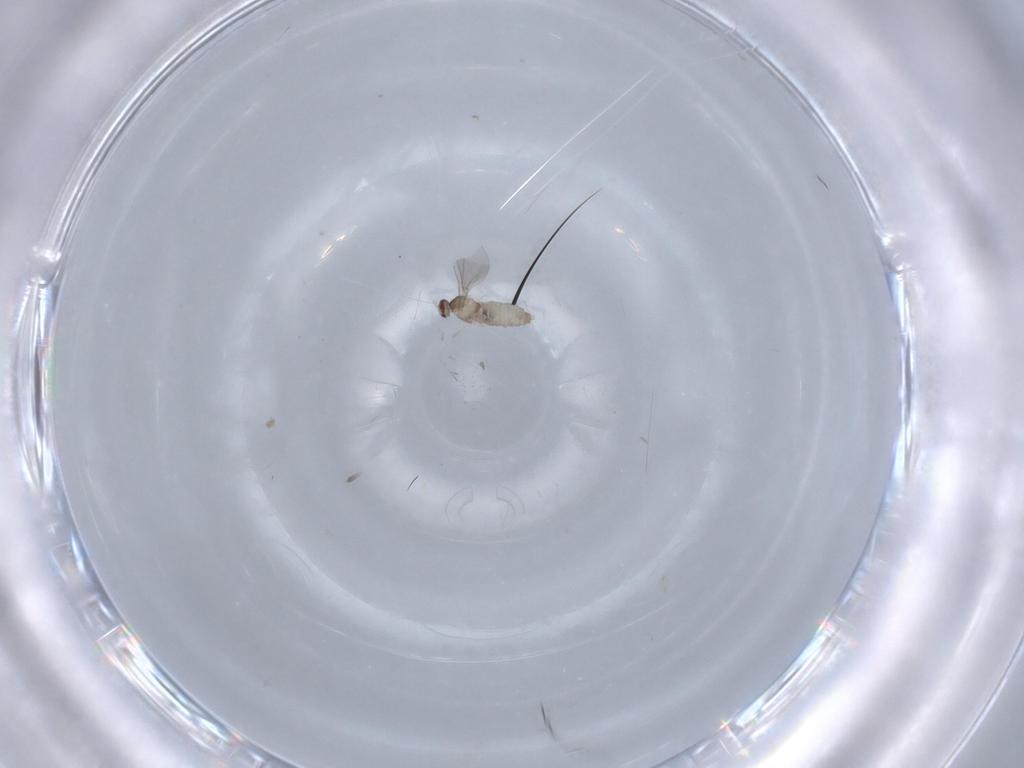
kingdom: Animalia
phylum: Arthropoda
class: Insecta
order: Diptera
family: Cecidomyiidae
